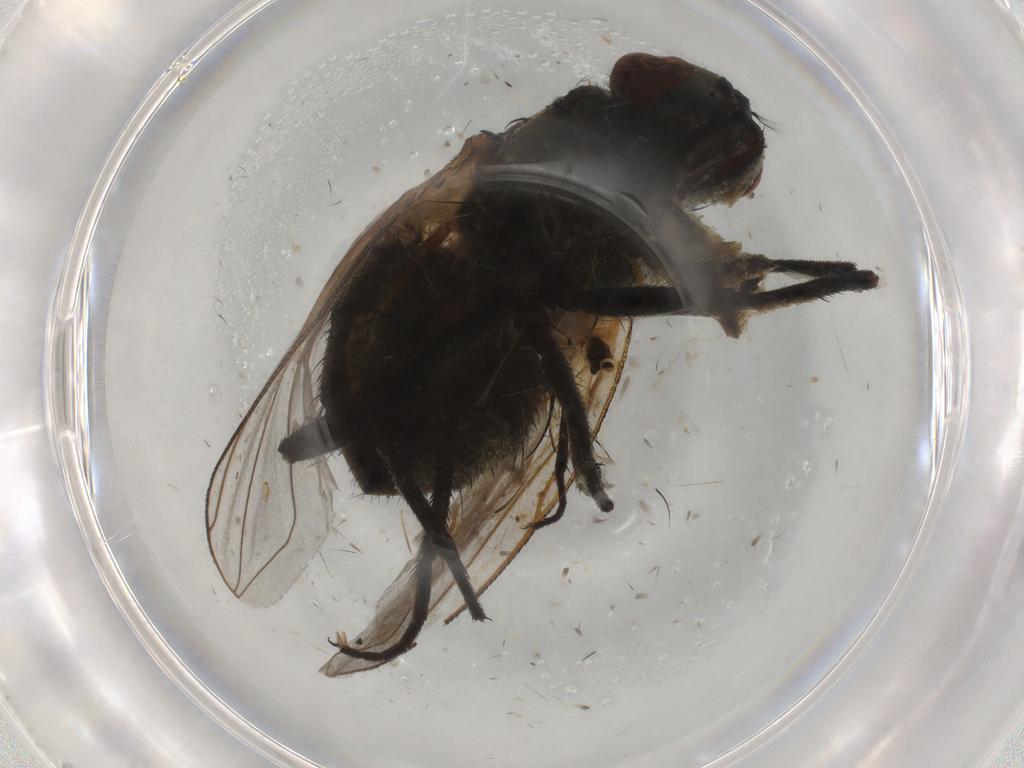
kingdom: Animalia
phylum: Arthropoda
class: Insecta
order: Diptera
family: Muscidae
